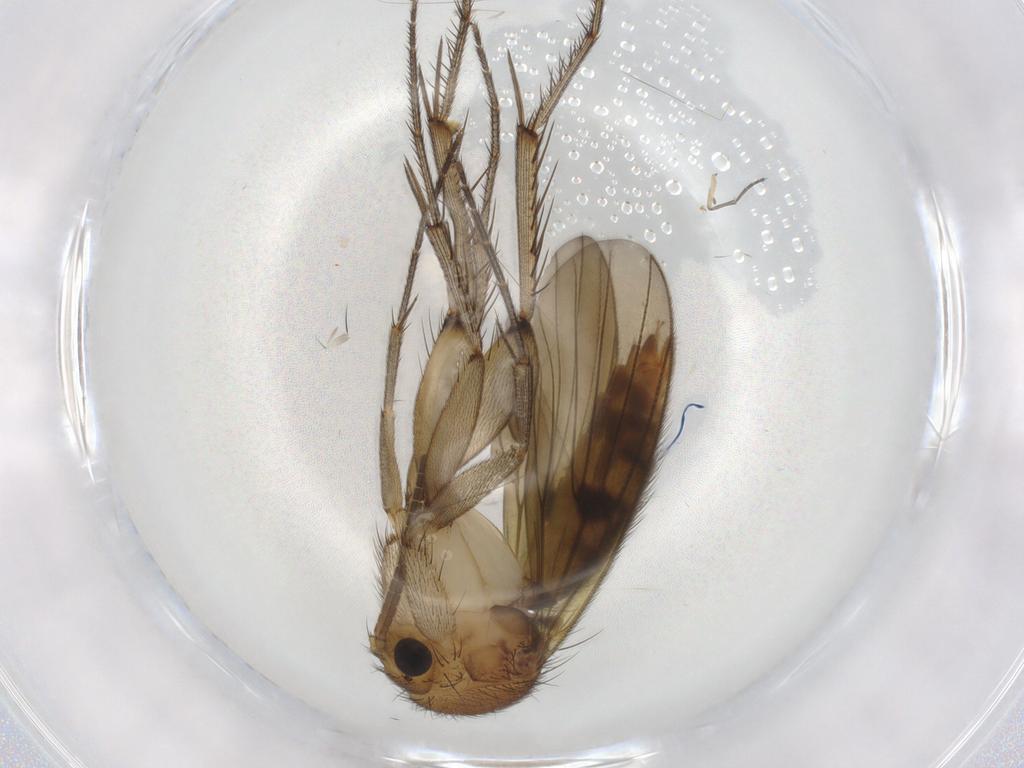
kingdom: Animalia
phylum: Arthropoda
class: Insecta
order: Diptera
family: Mycetophilidae
